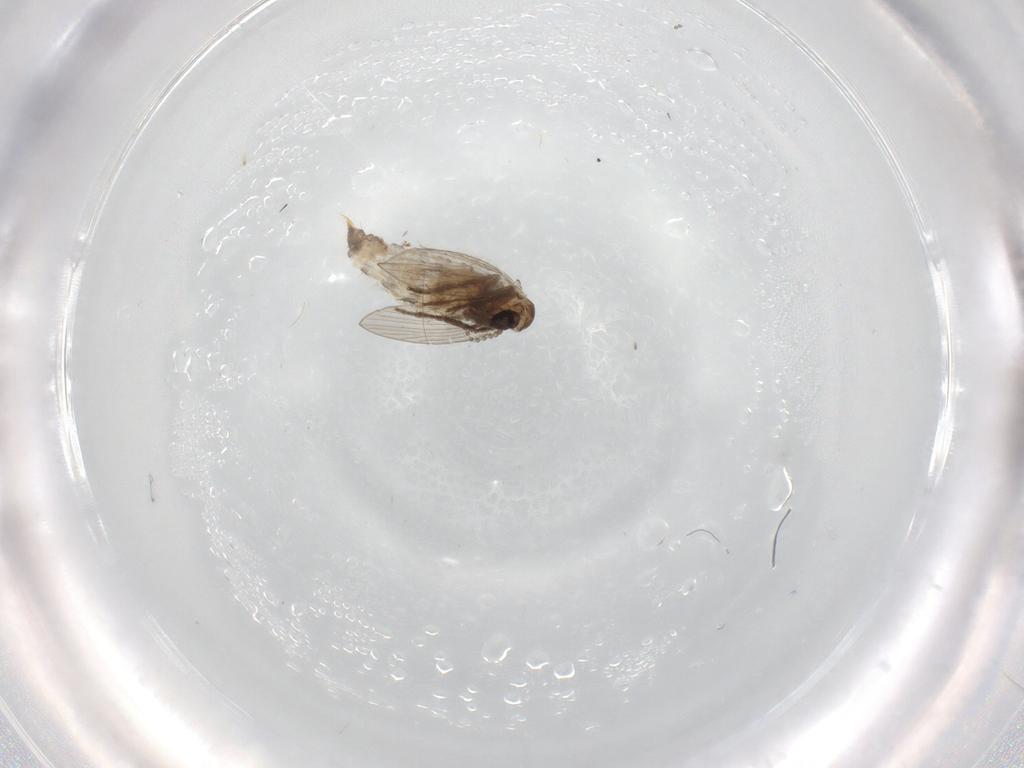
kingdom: Animalia
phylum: Arthropoda
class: Insecta
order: Diptera
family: Psychodidae
